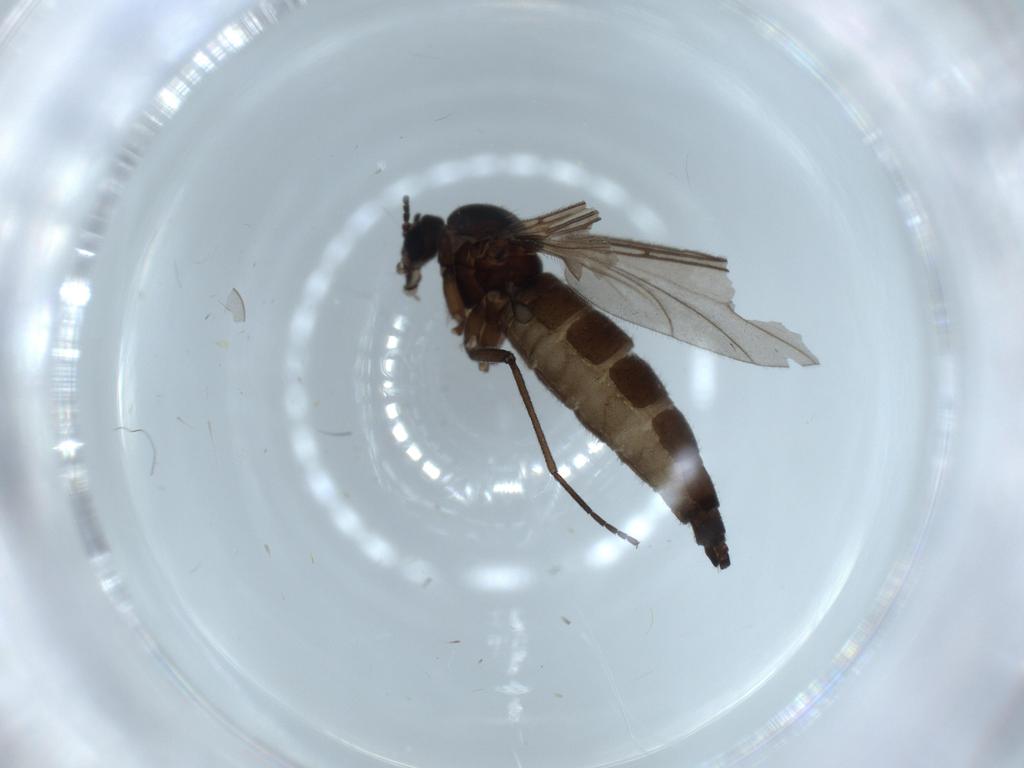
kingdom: Animalia
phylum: Arthropoda
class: Insecta
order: Diptera
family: Sciaridae
